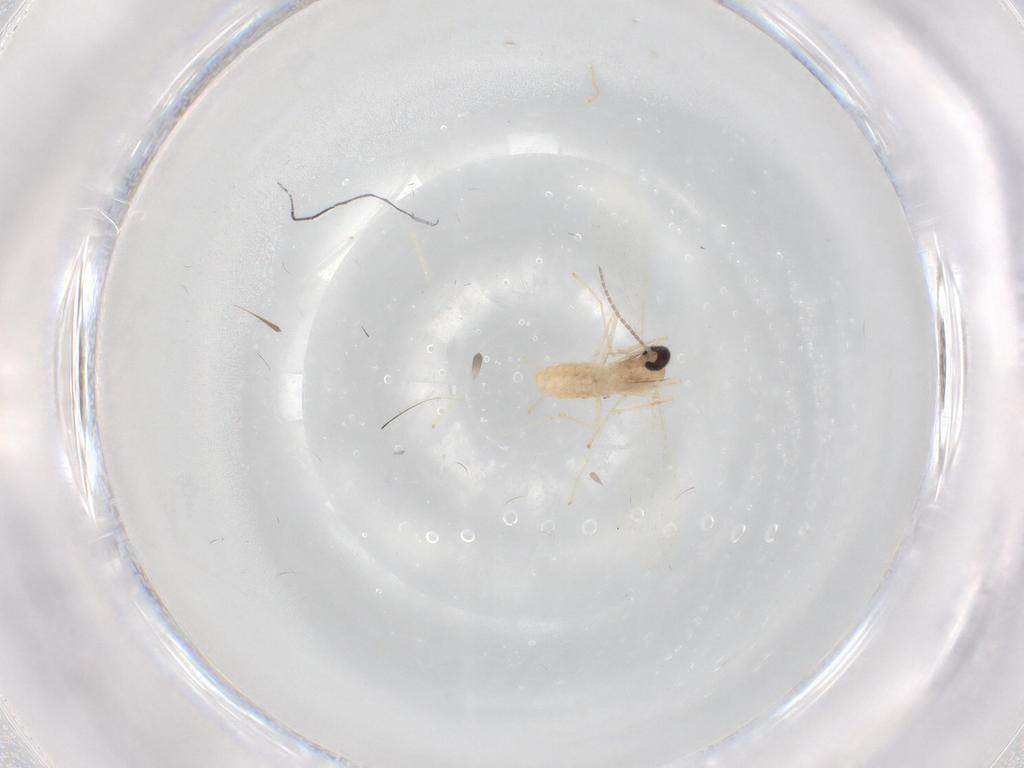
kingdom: Animalia
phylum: Arthropoda
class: Insecta
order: Diptera
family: Cecidomyiidae
